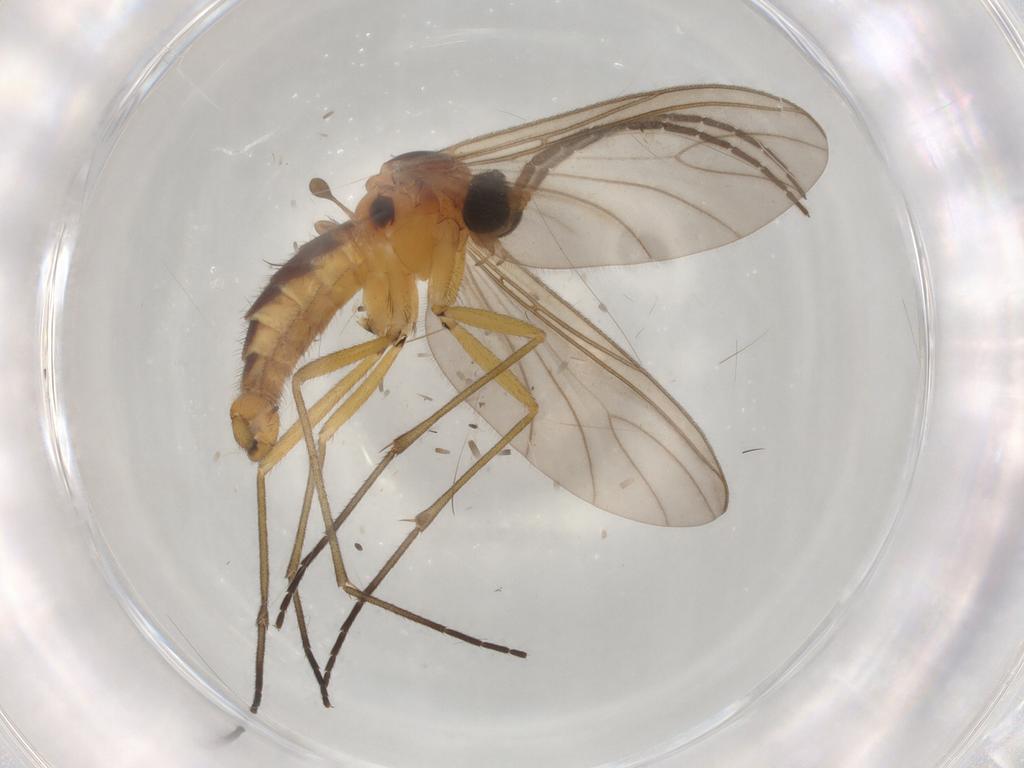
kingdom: Animalia
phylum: Arthropoda
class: Insecta
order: Diptera
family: Sciaridae
